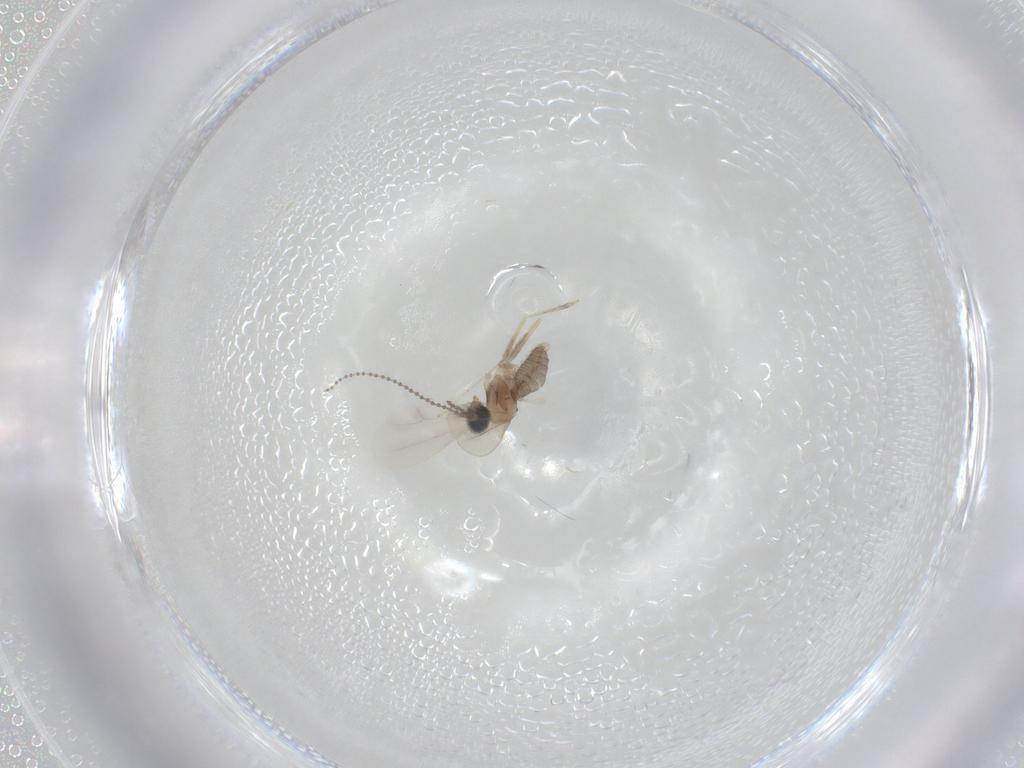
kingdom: Animalia
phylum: Arthropoda
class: Insecta
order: Diptera
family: Cecidomyiidae
